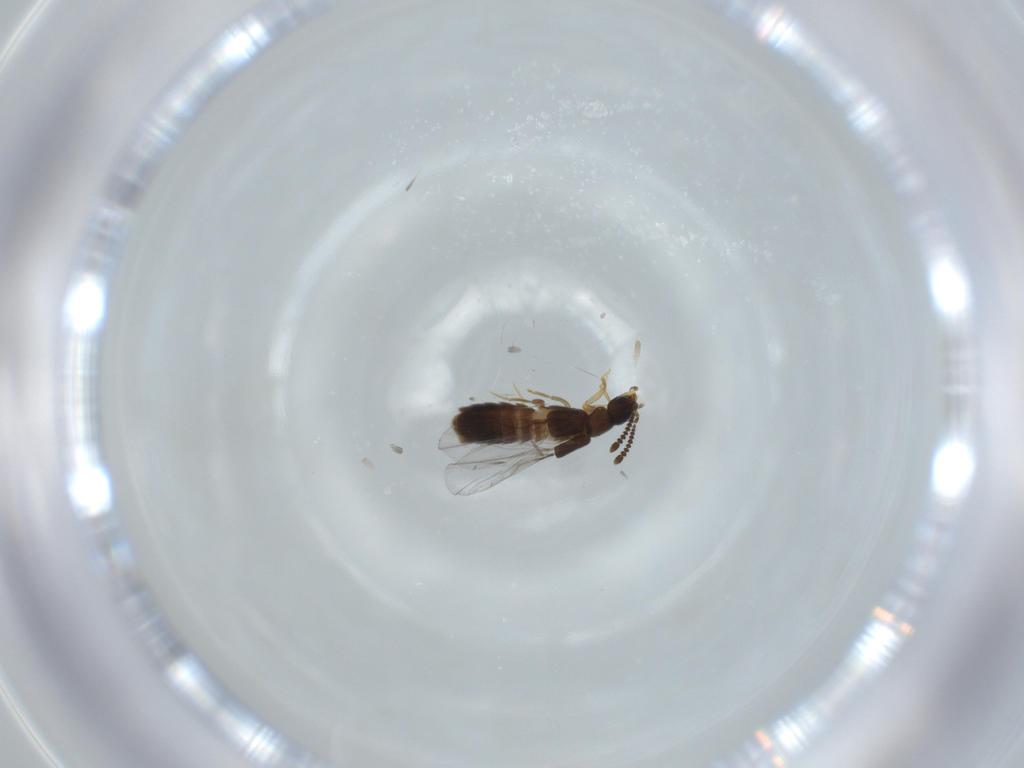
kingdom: Animalia
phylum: Arthropoda
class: Insecta
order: Coleoptera
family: Staphylinidae
